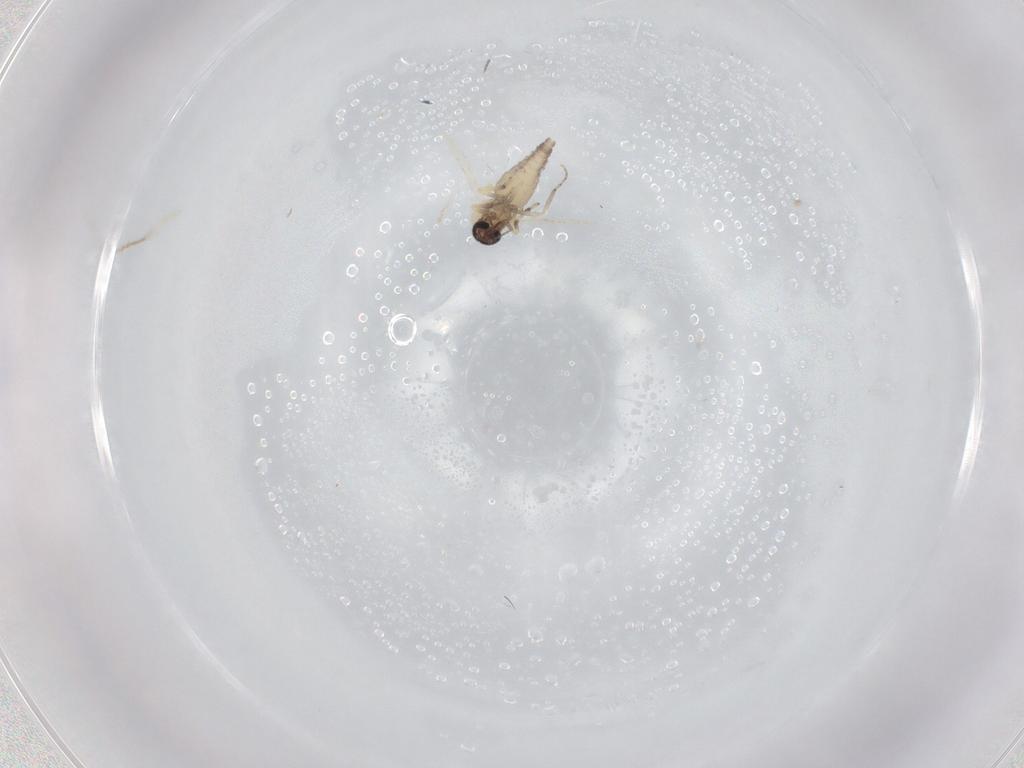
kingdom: Animalia
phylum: Arthropoda
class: Insecta
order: Diptera
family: Ceratopogonidae
